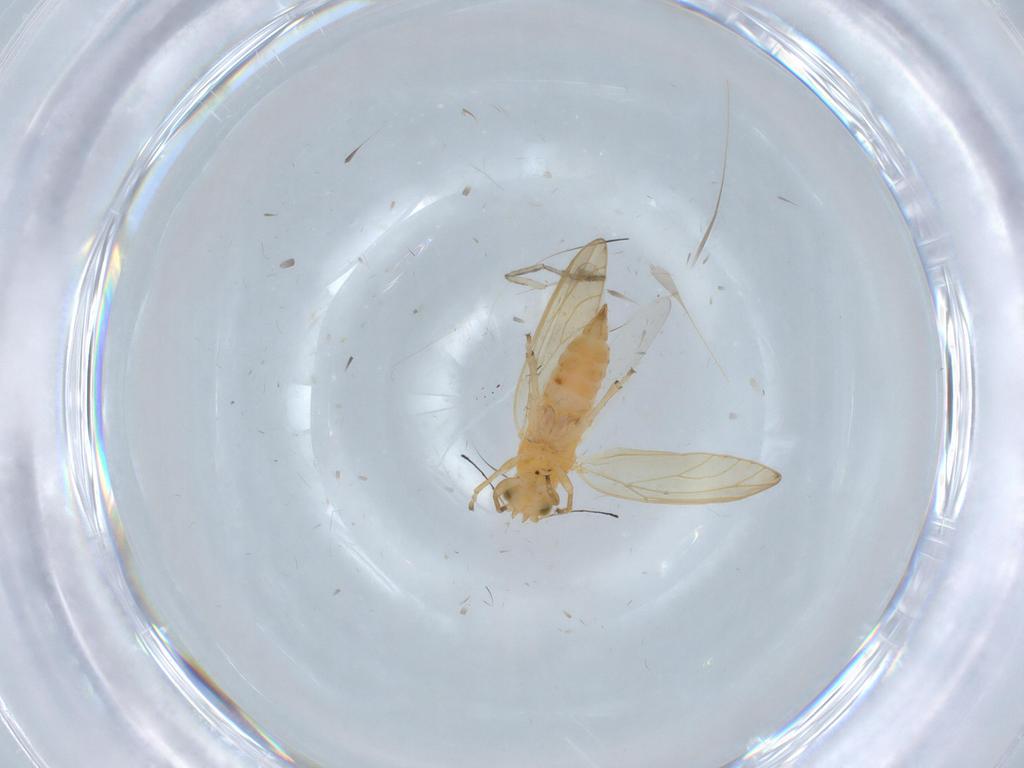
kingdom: Animalia
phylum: Arthropoda
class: Insecta
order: Hemiptera
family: Triozidae
